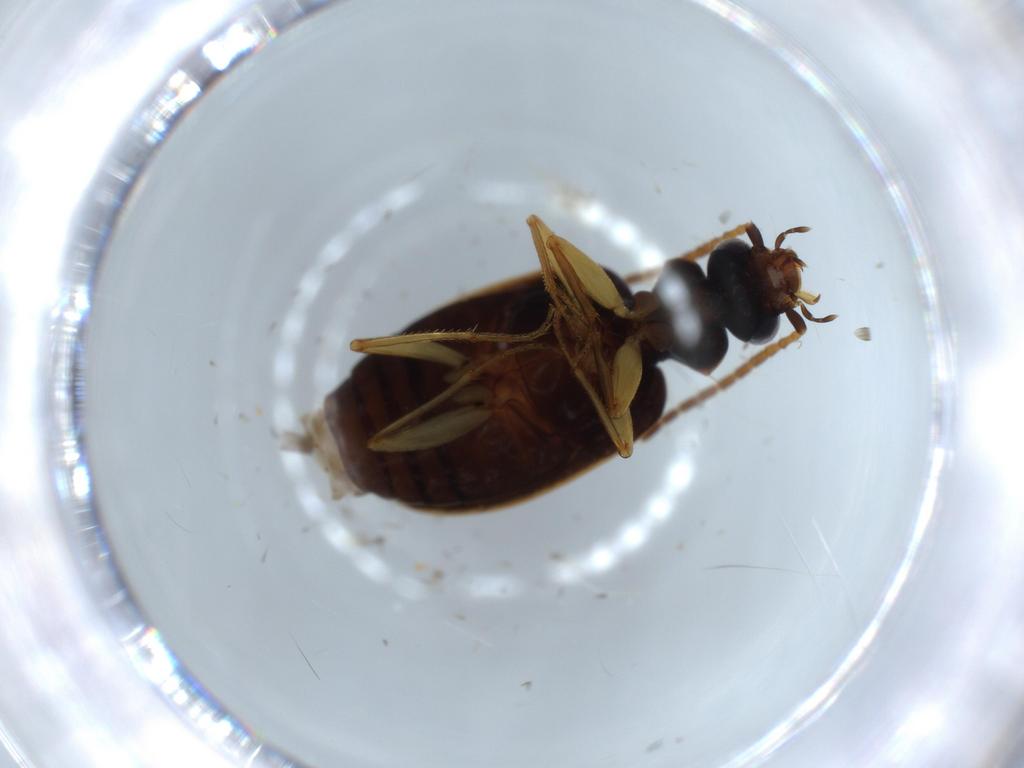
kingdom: Animalia
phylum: Arthropoda
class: Insecta
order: Coleoptera
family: Carabidae
